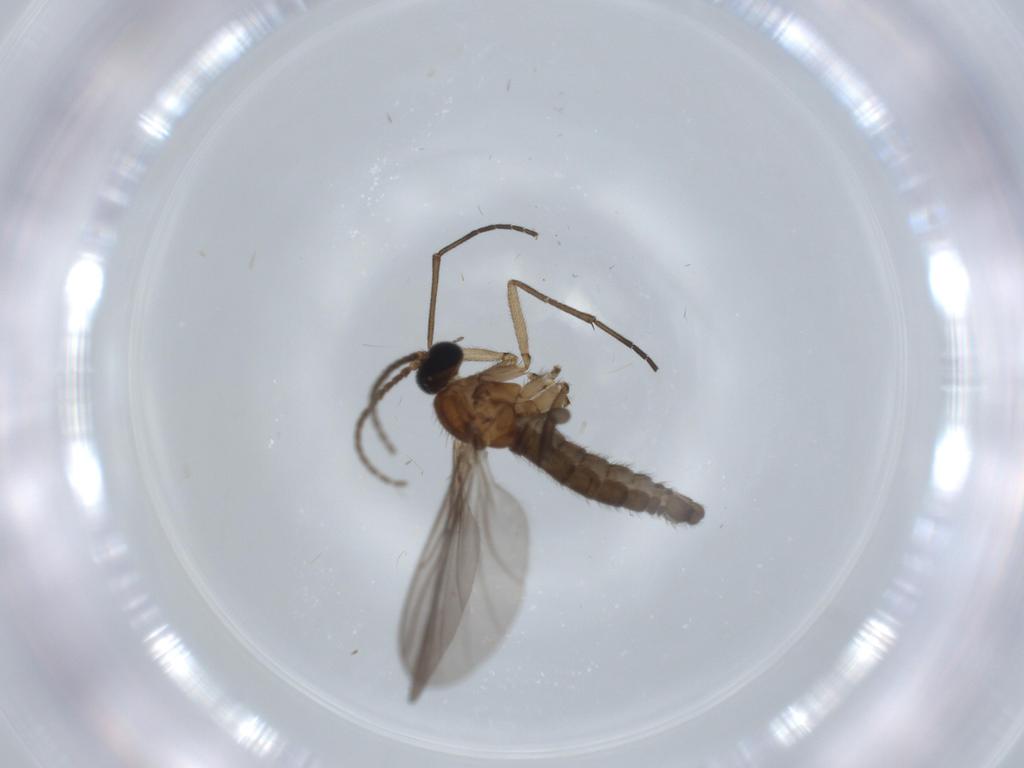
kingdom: Animalia
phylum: Arthropoda
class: Insecta
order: Diptera
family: Sciaridae
